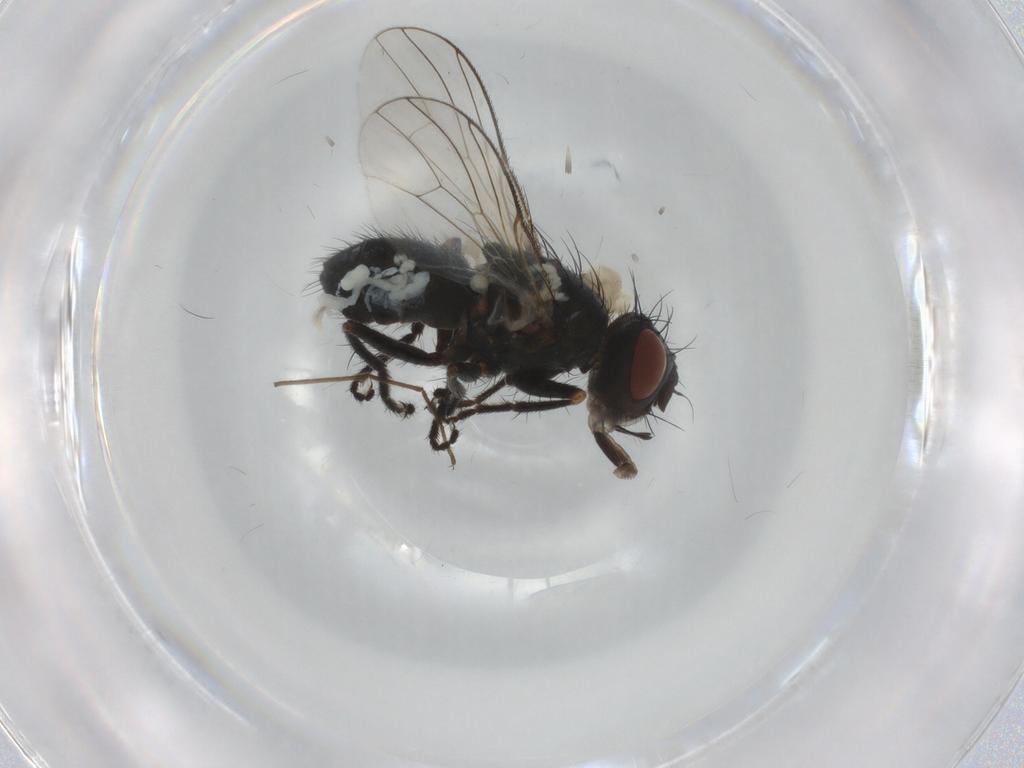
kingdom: Animalia
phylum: Arthropoda
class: Insecta
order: Diptera
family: Muscidae
